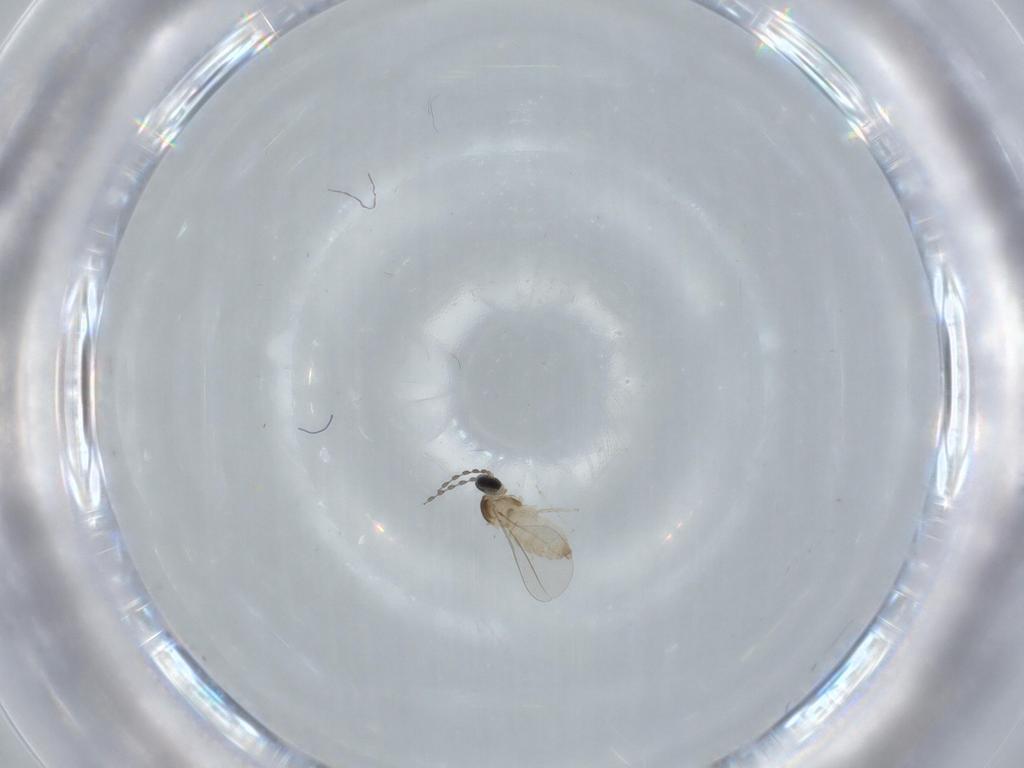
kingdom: Animalia
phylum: Arthropoda
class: Insecta
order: Diptera
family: Cecidomyiidae
